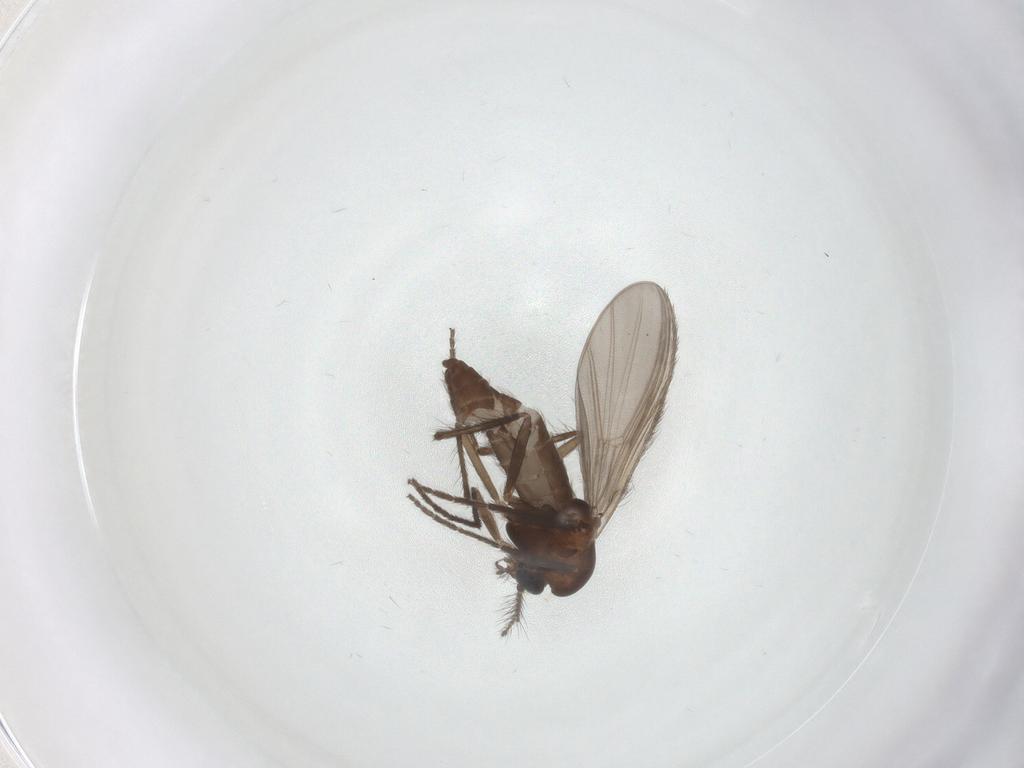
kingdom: Animalia
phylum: Arthropoda
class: Insecta
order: Diptera
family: Chironomidae
